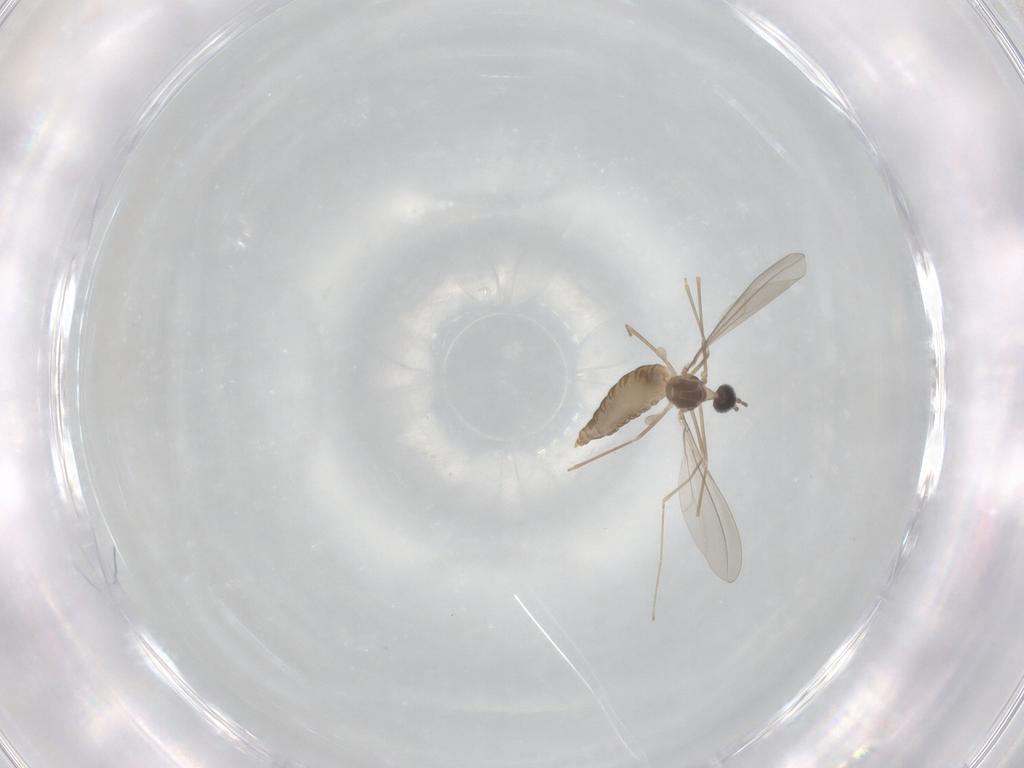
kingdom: Animalia
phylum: Arthropoda
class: Insecta
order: Diptera
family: Cecidomyiidae
